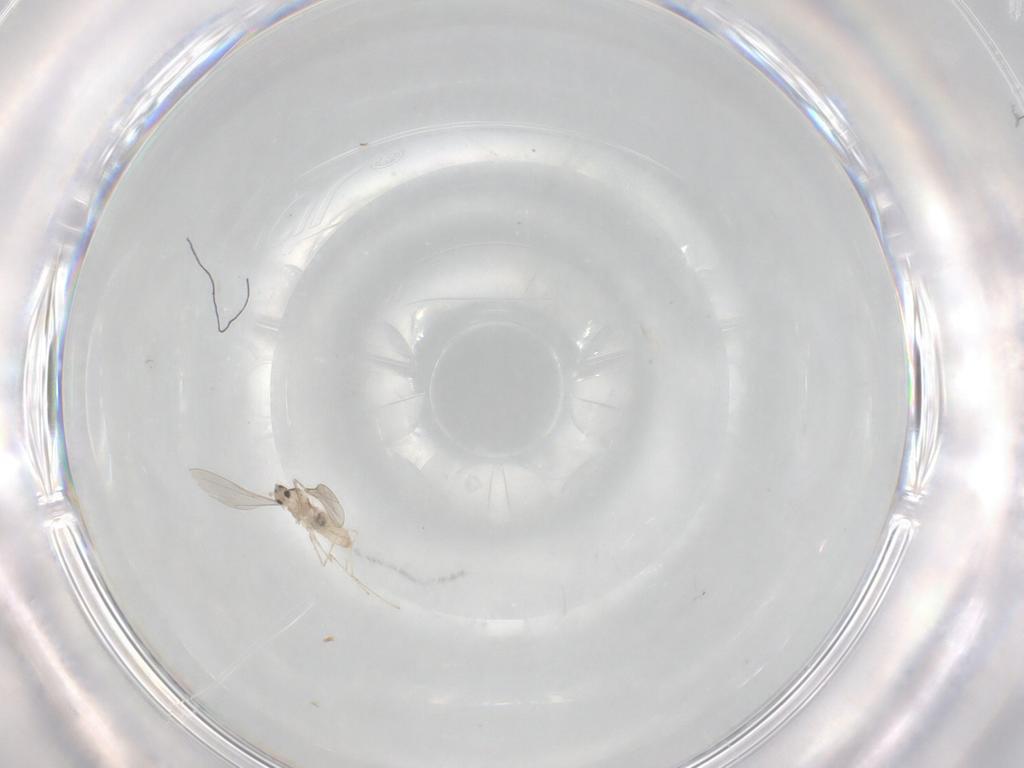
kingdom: Animalia
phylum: Arthropoda
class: Insecta
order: Diptera
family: Cecidomyiidae
